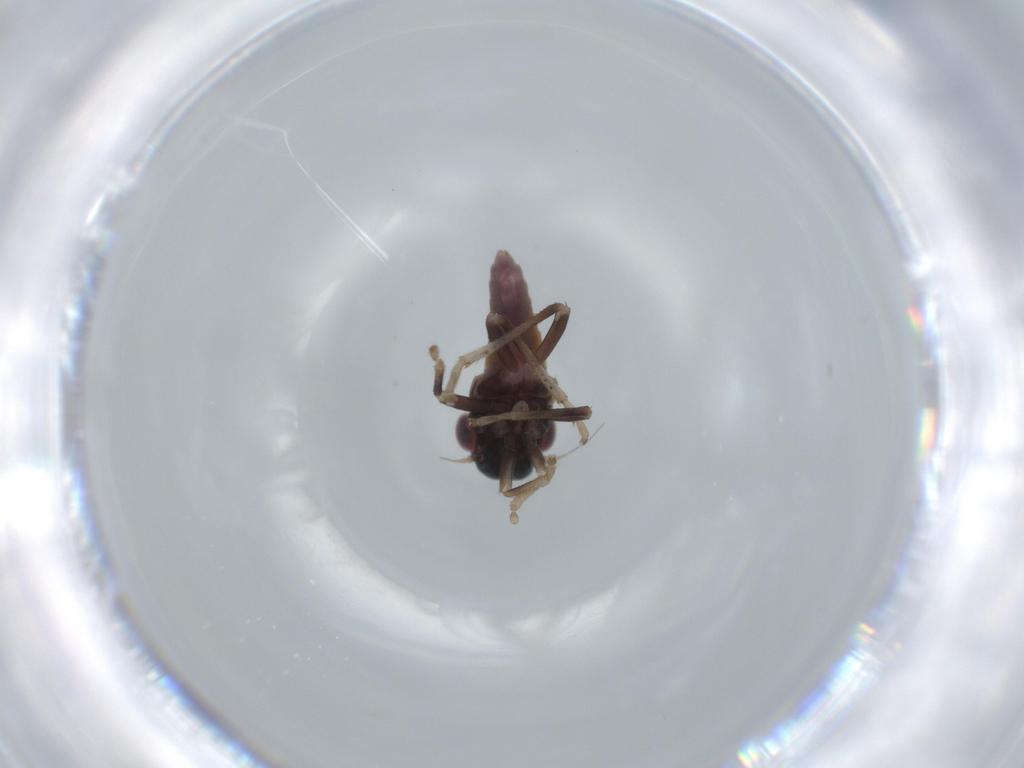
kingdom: Animalia
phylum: Arthropoda
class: Insecta
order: Hemiptera
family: Cicadellidae
